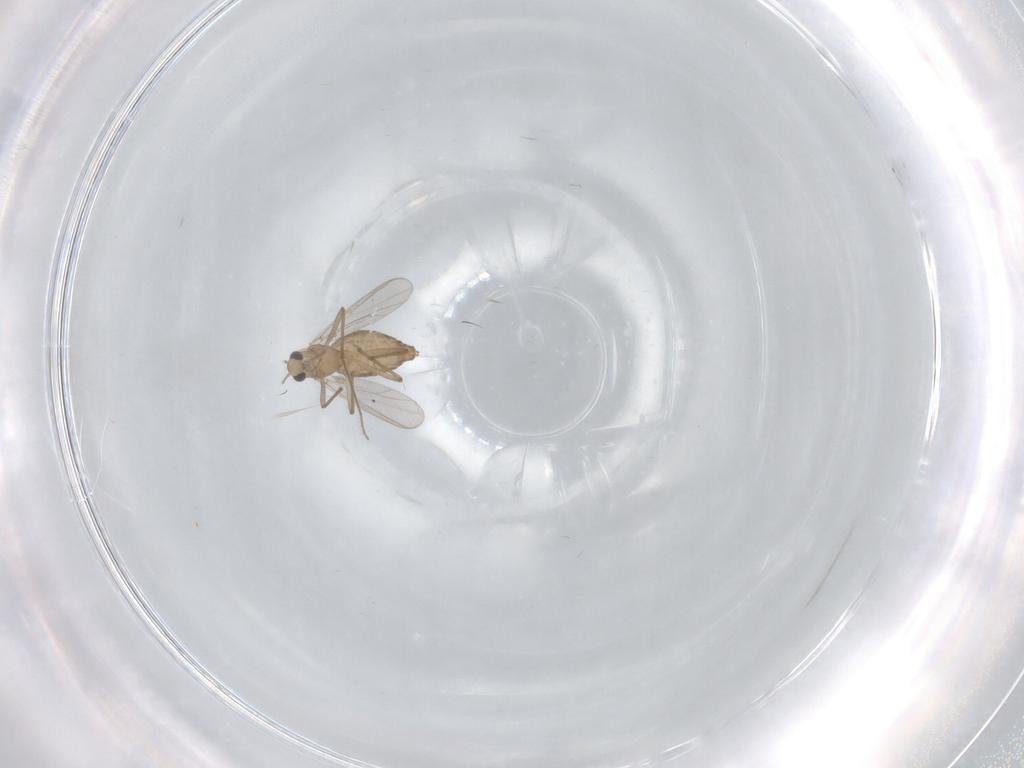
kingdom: Animalia
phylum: Arthropoda
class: Insecta
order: Diptera
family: Chironomidae
